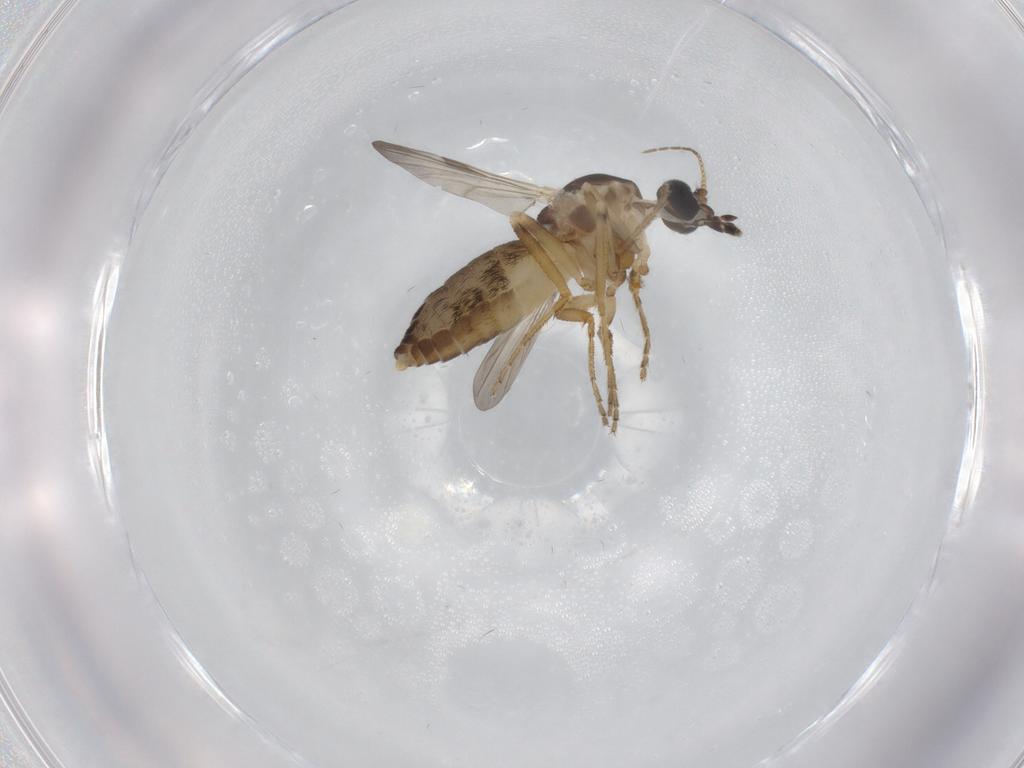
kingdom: Animalia
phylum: Arthropoda
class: Insecta
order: Diptera
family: Ceratopogonidae
